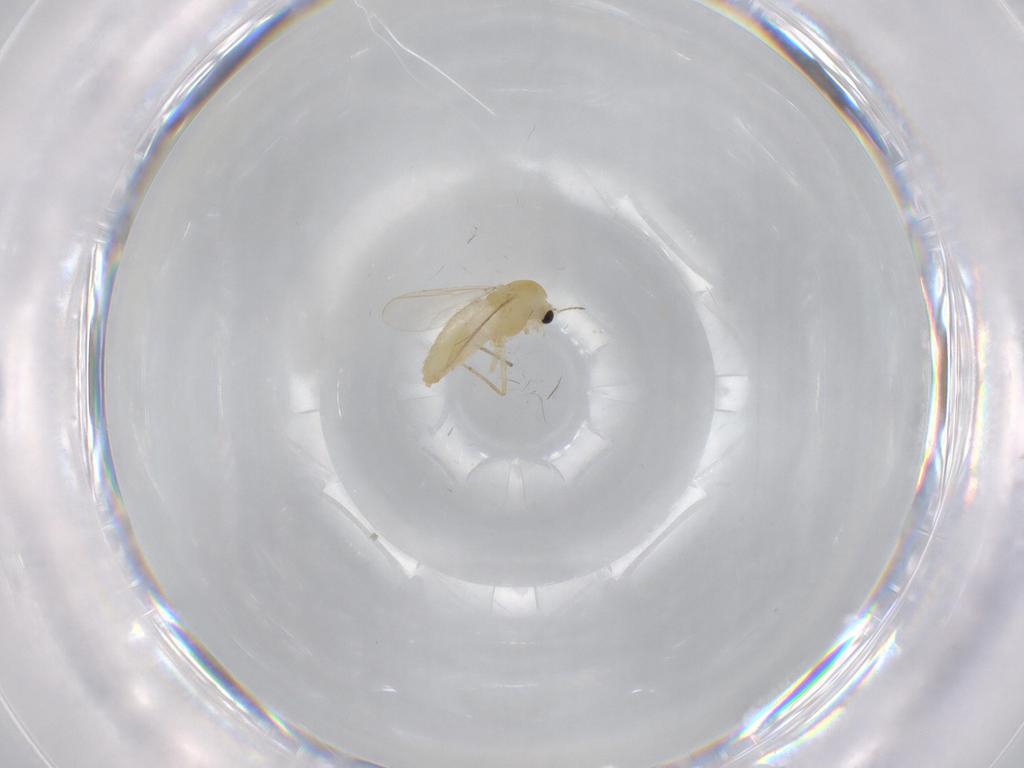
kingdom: Animalia
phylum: Arthropoda
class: Insecta
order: Diptera
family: Chironomidae
